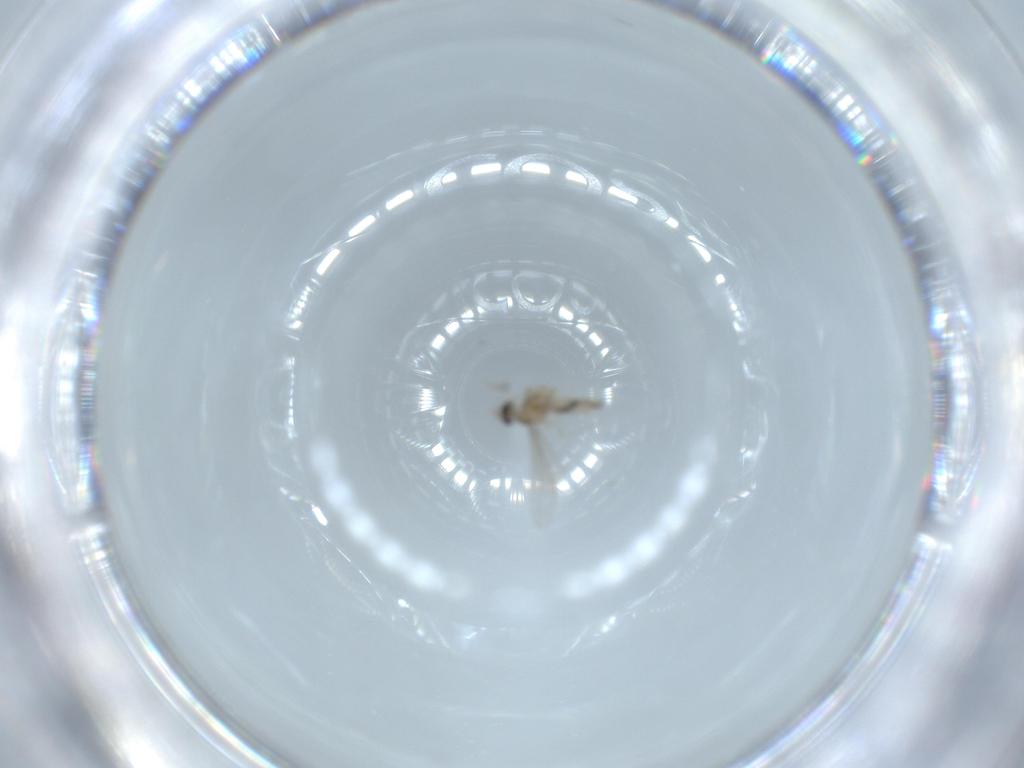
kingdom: Animalia
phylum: Arthropoda
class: Insecta
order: Diptera
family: Cecidomyiidae
